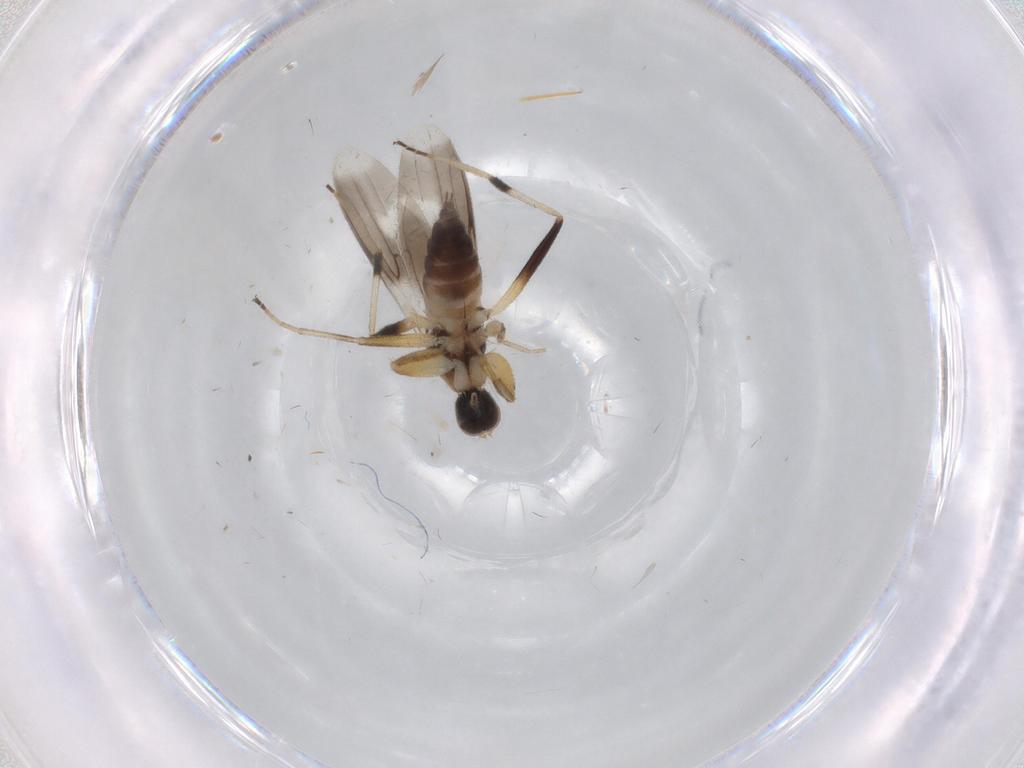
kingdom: Animalia
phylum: Arthropoda
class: Insecta
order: Diptera
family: Hybotidae
